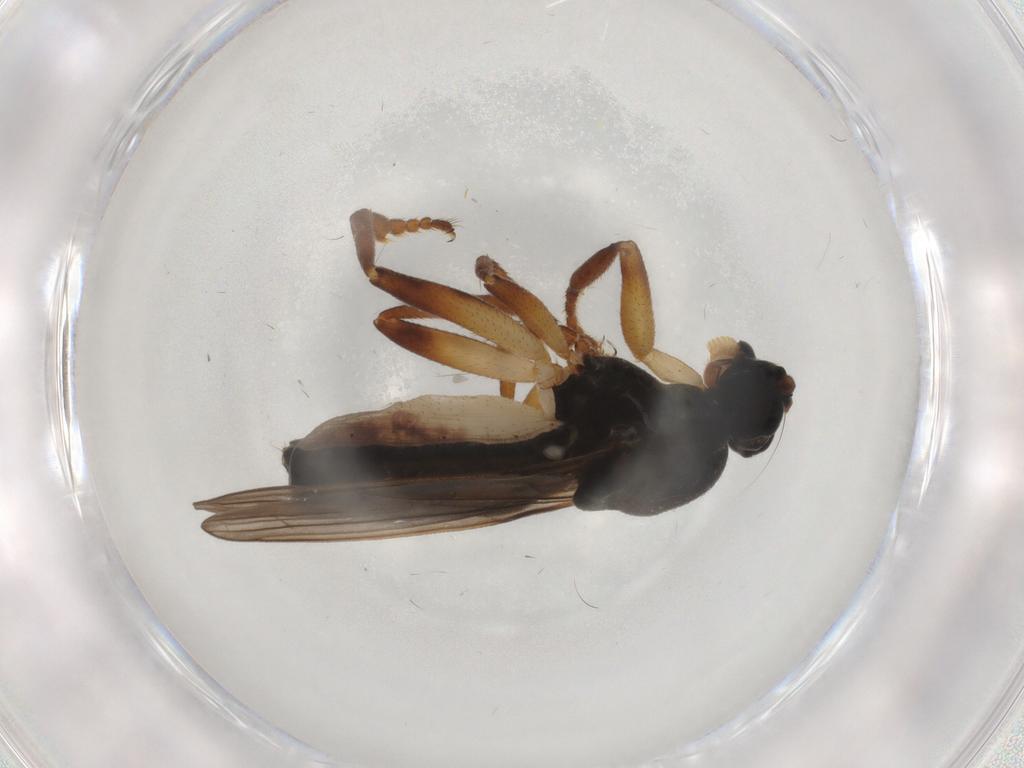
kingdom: Animalia
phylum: Arthropoda
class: Insecta
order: Diptera
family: Sphaeroceridae
